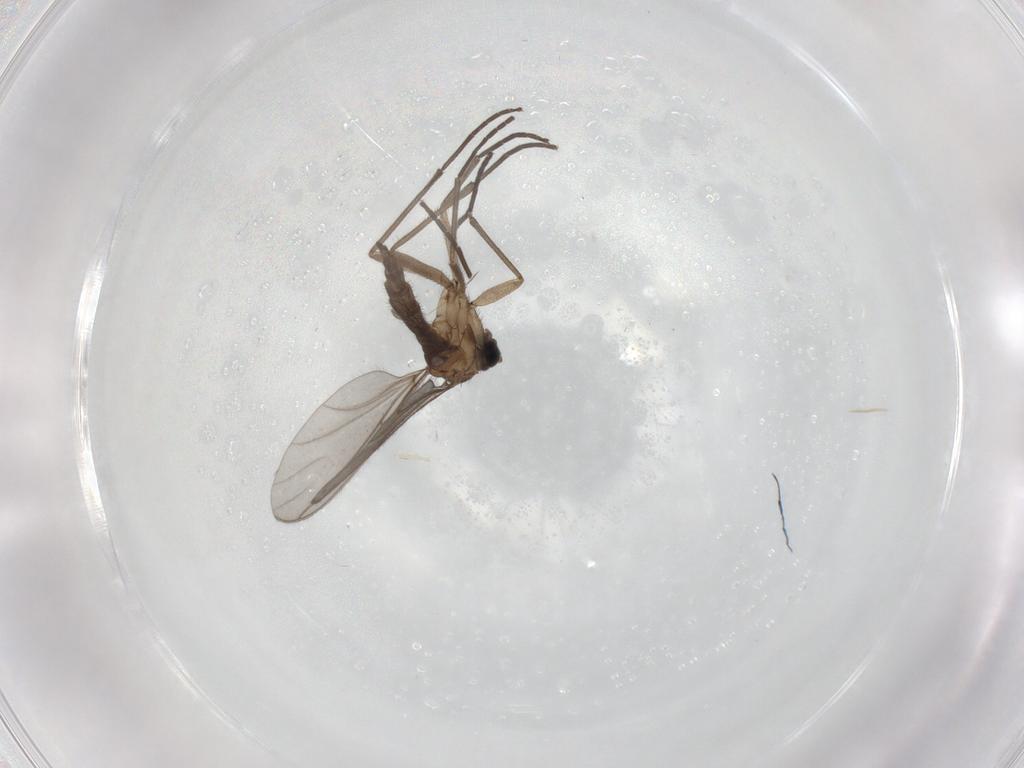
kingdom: Animalia
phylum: Arthropoda
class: Insecta
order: Diptera
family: Sciaridae
